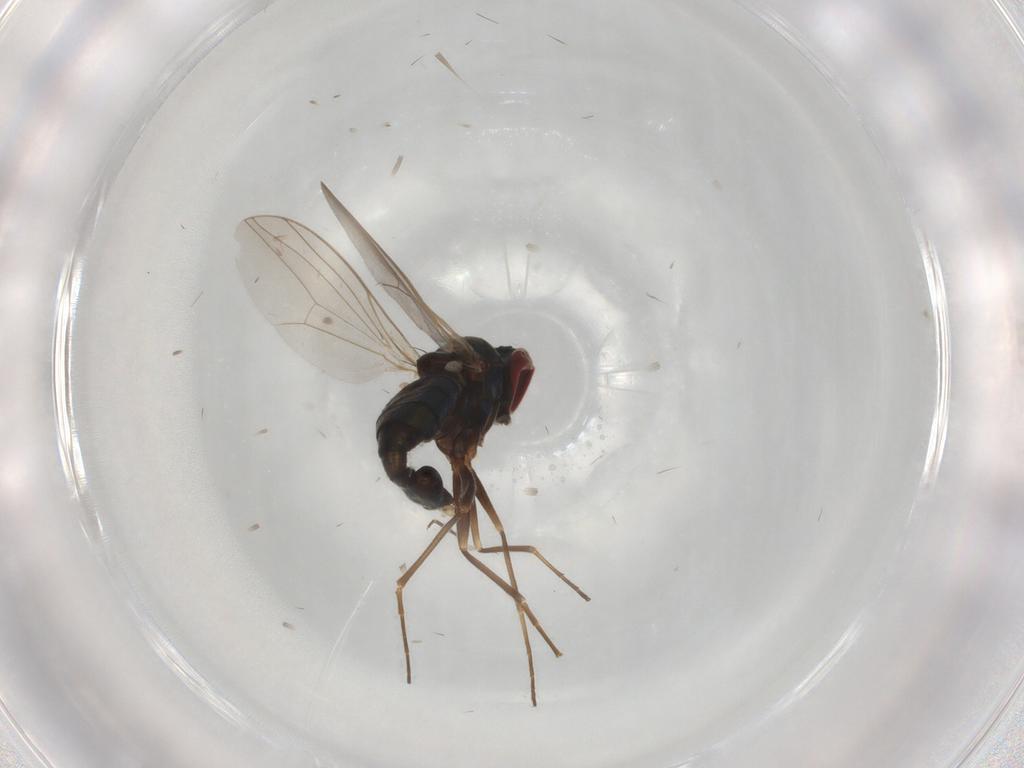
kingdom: Animalia
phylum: Arthropoda
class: Insecta
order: Diptera
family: Dolichopodidae
